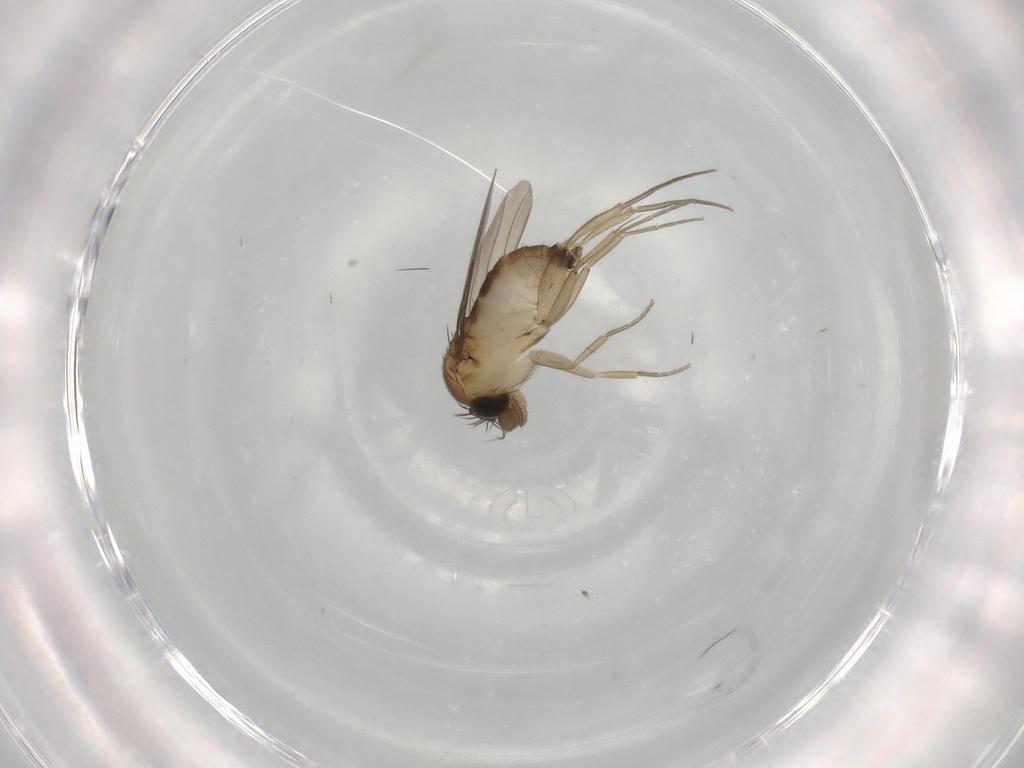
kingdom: Animalia
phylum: Arthropoda
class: Insecta
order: Diptera
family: Phoridae
